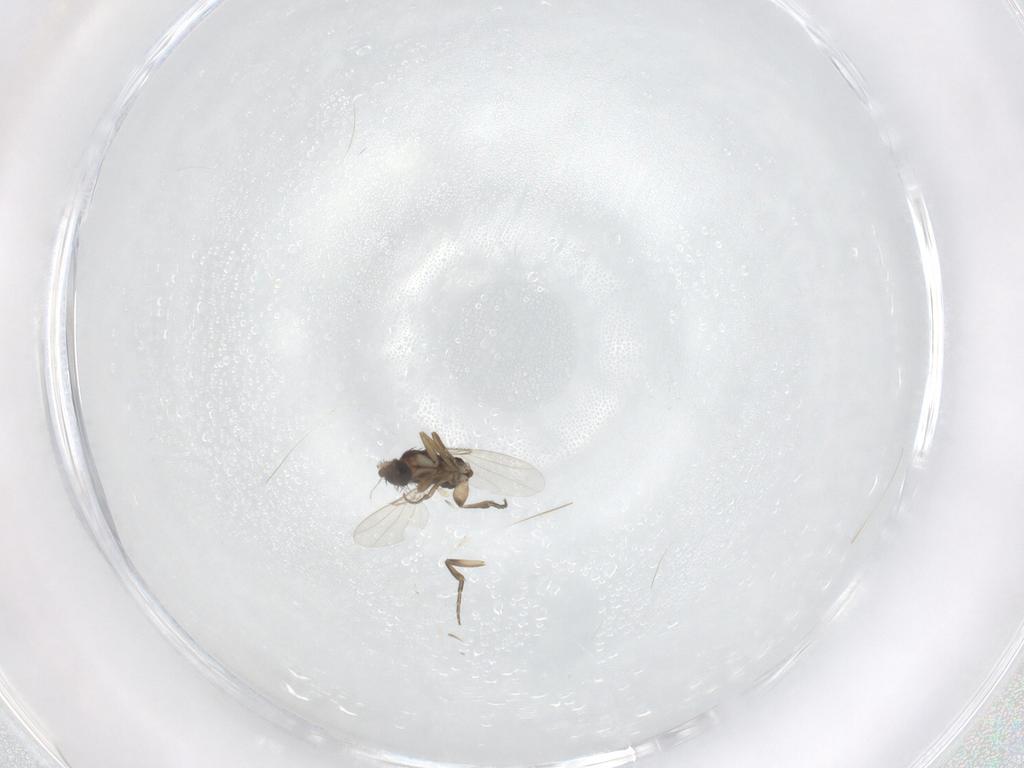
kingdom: Animalia
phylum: Arthropoda
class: Insecta
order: Diptera
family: Phoridae
